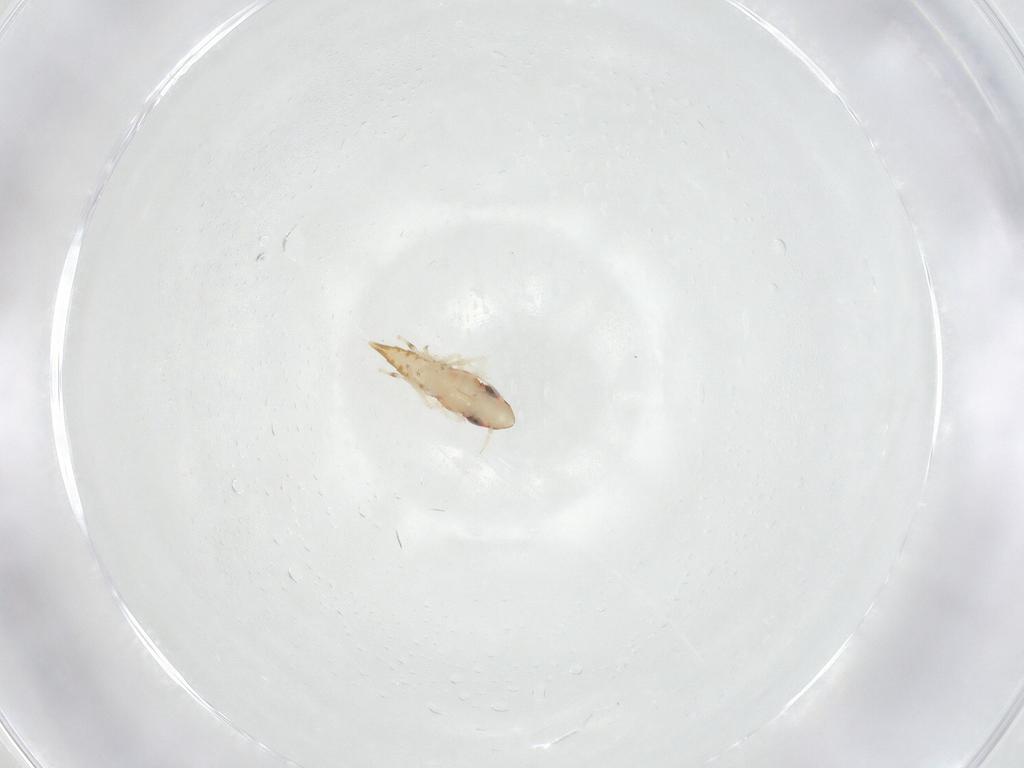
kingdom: Animalia
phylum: Arthropoda
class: Insecta
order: Hemiptera
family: Cicadellidae
